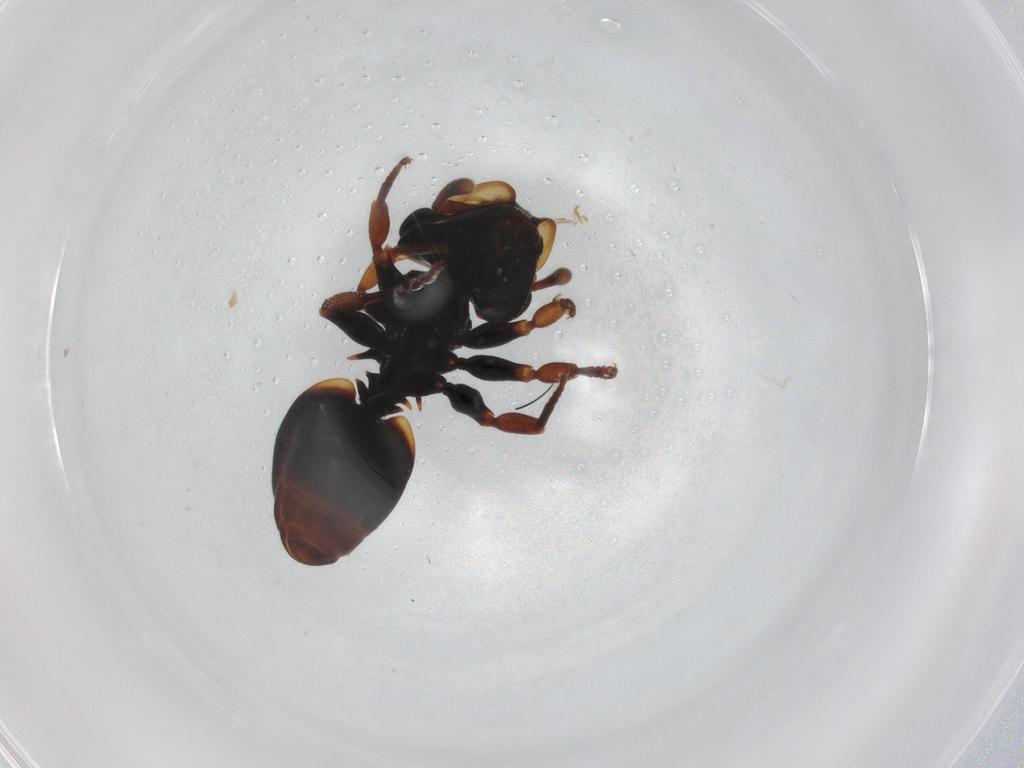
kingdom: Animalia
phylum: Arthropoda
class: Insecta
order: Hymenoptera
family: Formicidae
